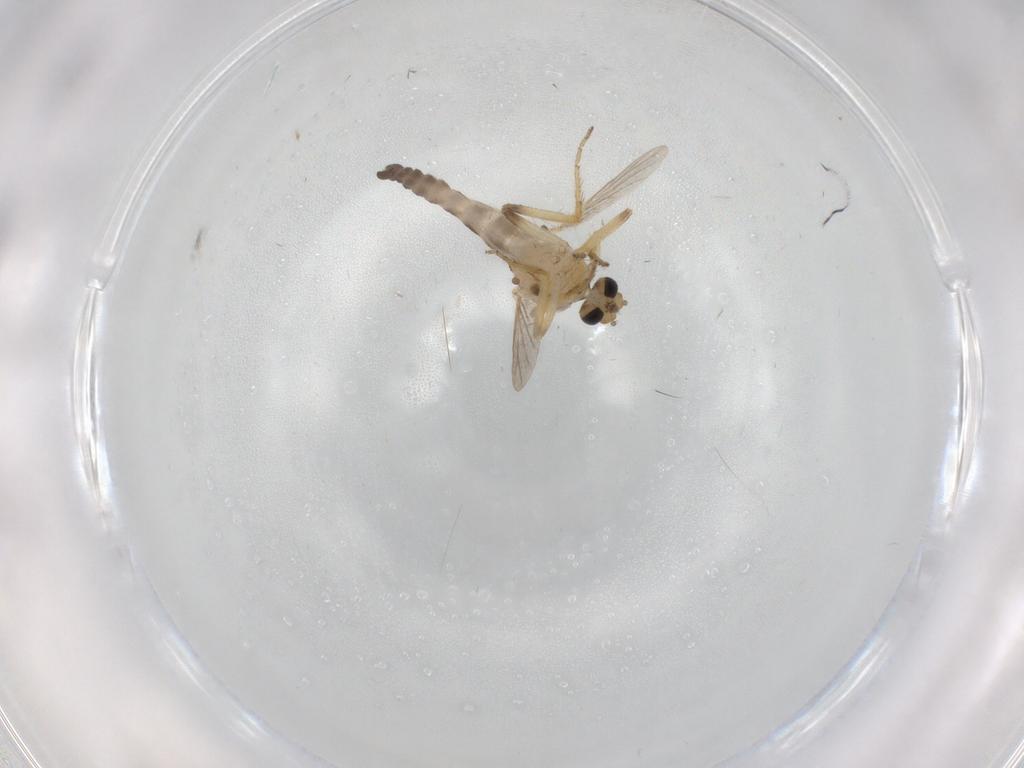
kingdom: Animalia
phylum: Arthropoda
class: Insecta
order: Diptera
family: Ceratopogonidae
